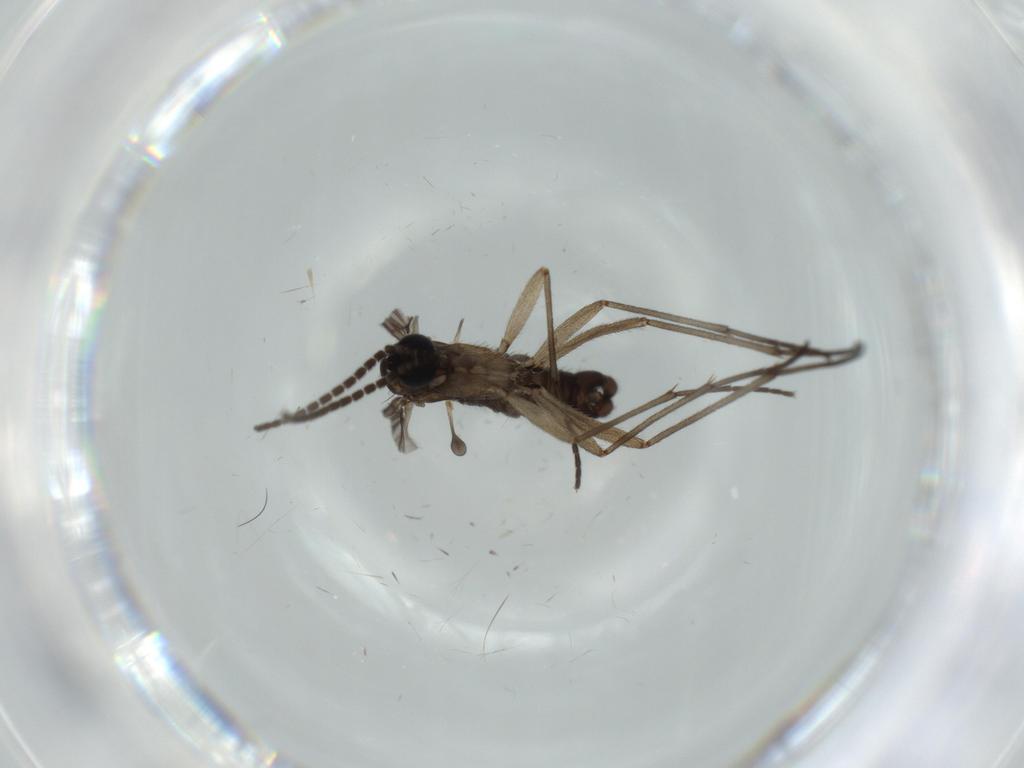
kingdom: Animalia
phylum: Arthropoda
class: Insecta
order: Diptera
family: Sciaridae
